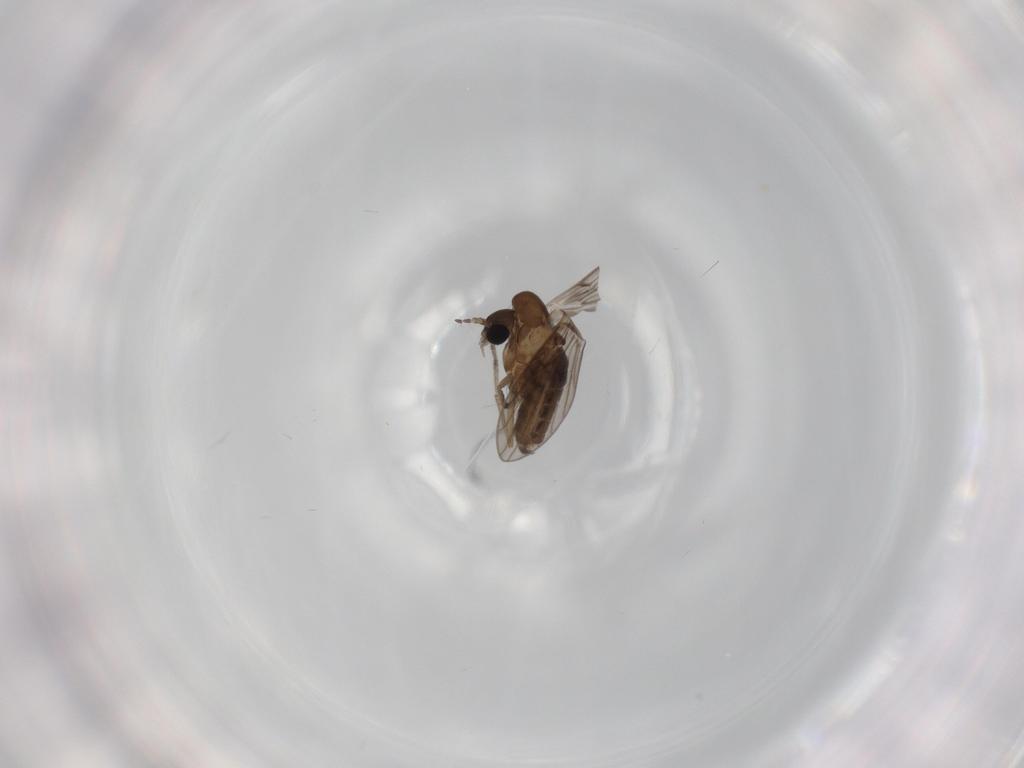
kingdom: Animalia
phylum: Arthropoda
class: Insecta
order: Diptera
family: Psychodidae
